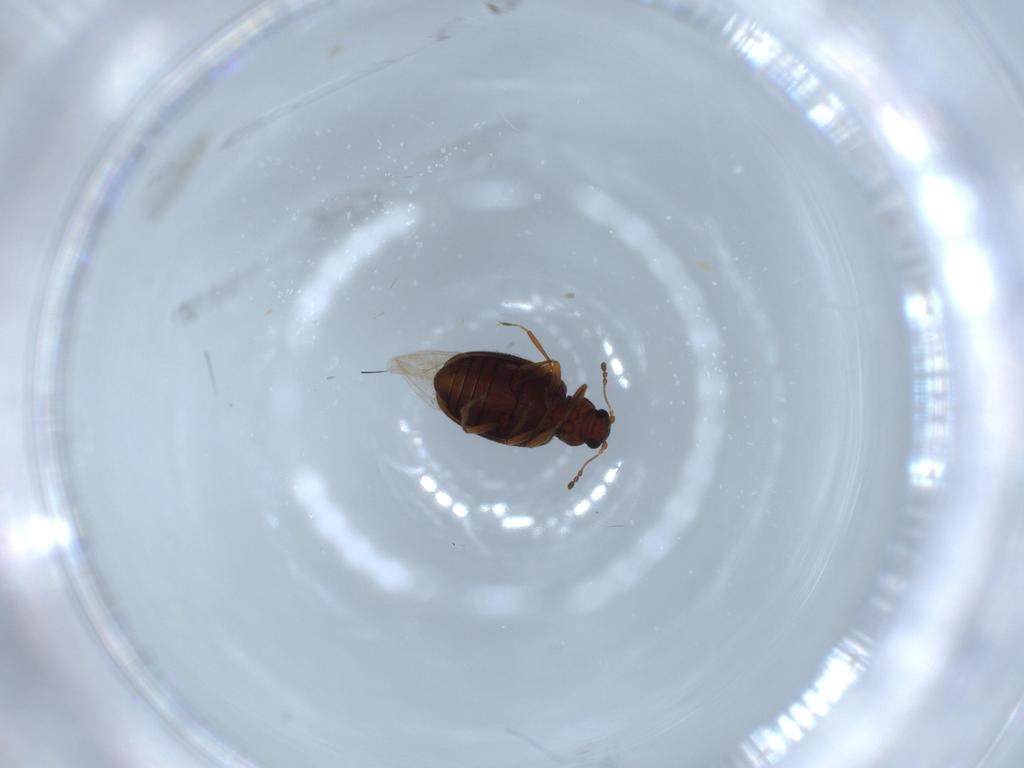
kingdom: Animalia
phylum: Arthropoda
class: Insecta
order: Coleoptera
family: Latridiidae
